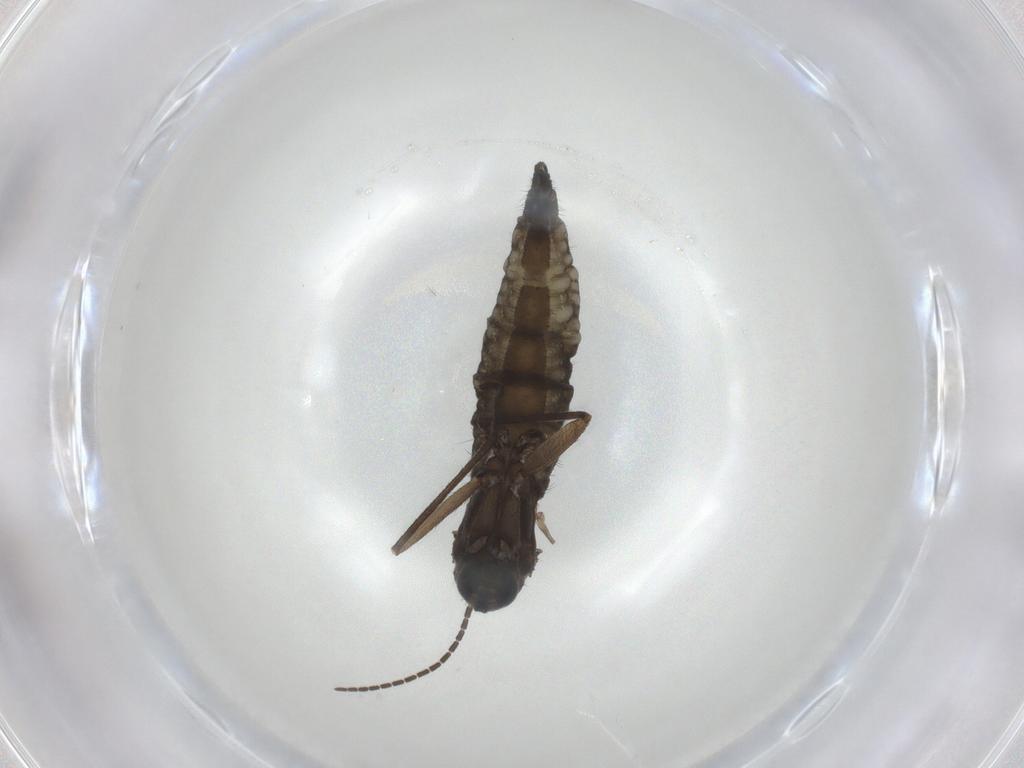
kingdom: Animalia
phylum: Arthropoda
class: Insecta
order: Diptera
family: Sciaridae
